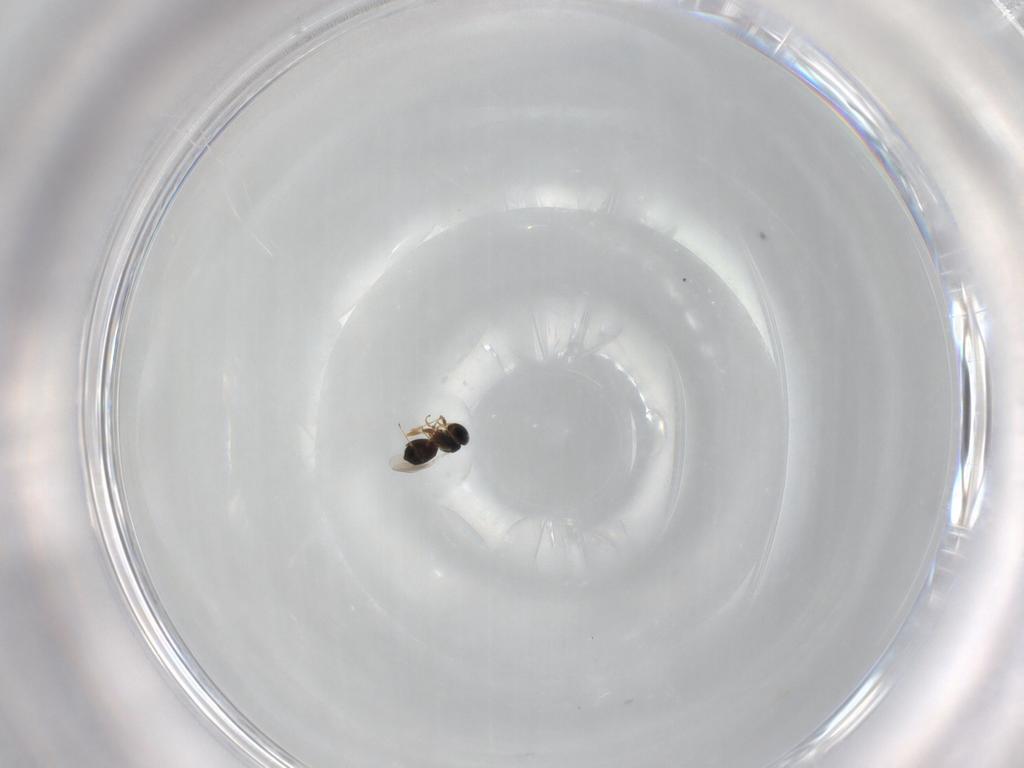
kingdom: Animalia
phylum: Arthropoda
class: Insecta
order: Hymenoptera
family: Platygastridae
